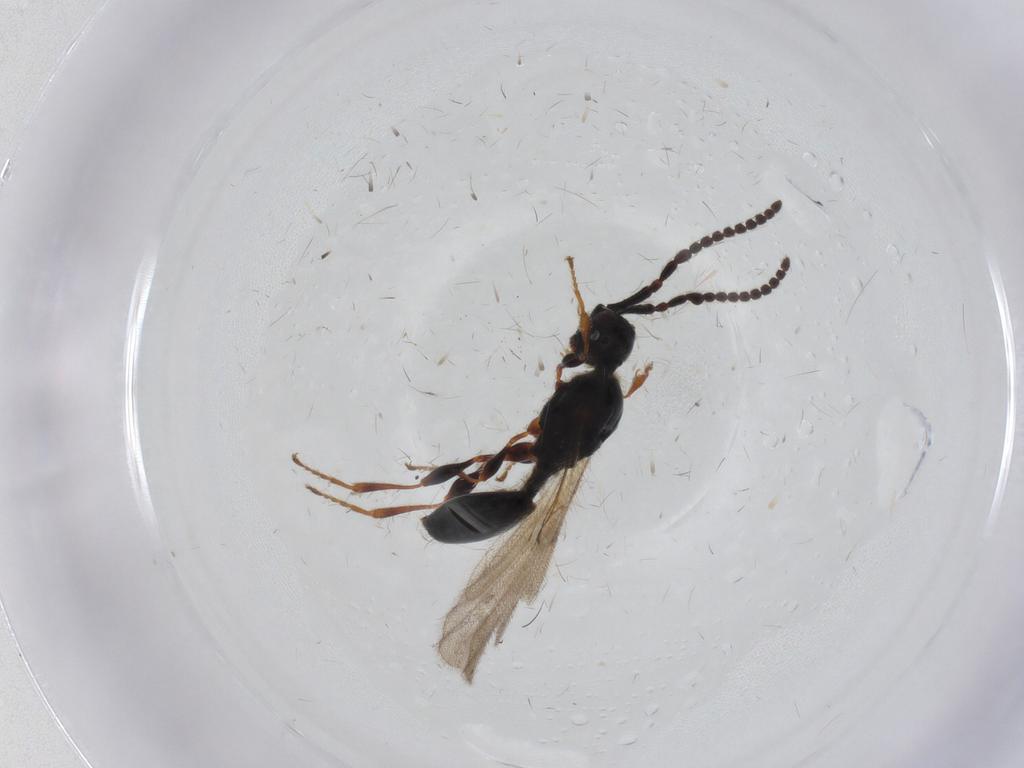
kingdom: Animalia
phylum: Arthropoda
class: Insecta
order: Hymenoptera
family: Diapriidae
